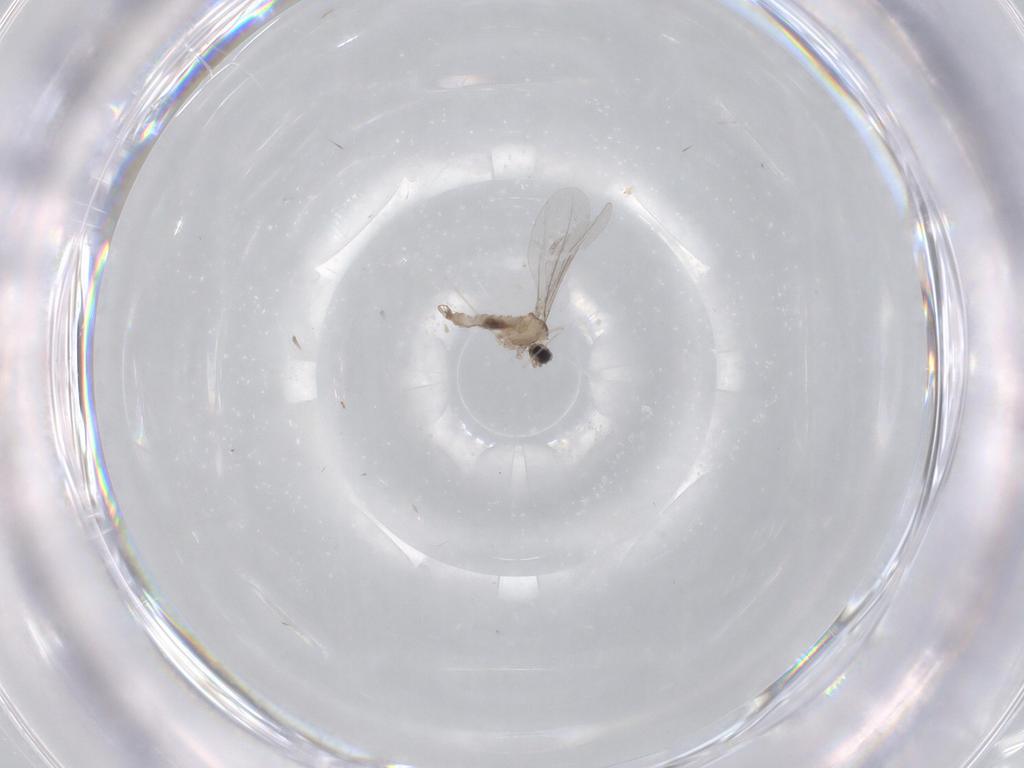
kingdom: Animalia
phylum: Arthropoda
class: Insecta
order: Diptera
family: Cecidomyiidae
